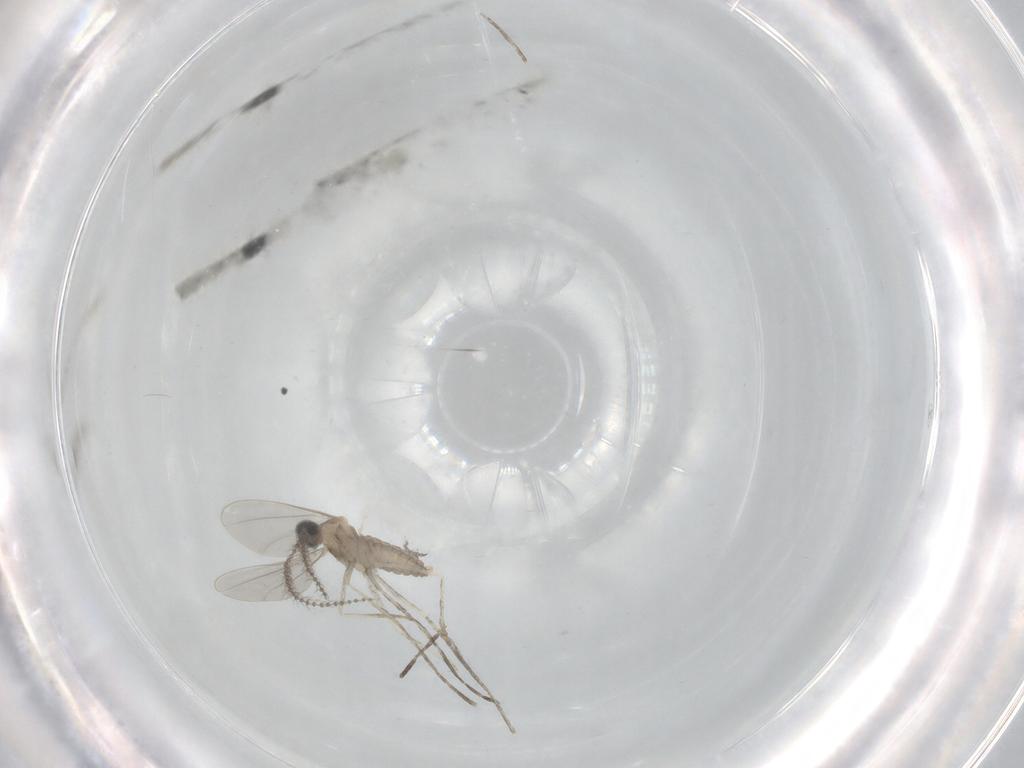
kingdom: Animalia
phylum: Arthropoda
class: Insecta
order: Diptera
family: Cecidomyiidae
